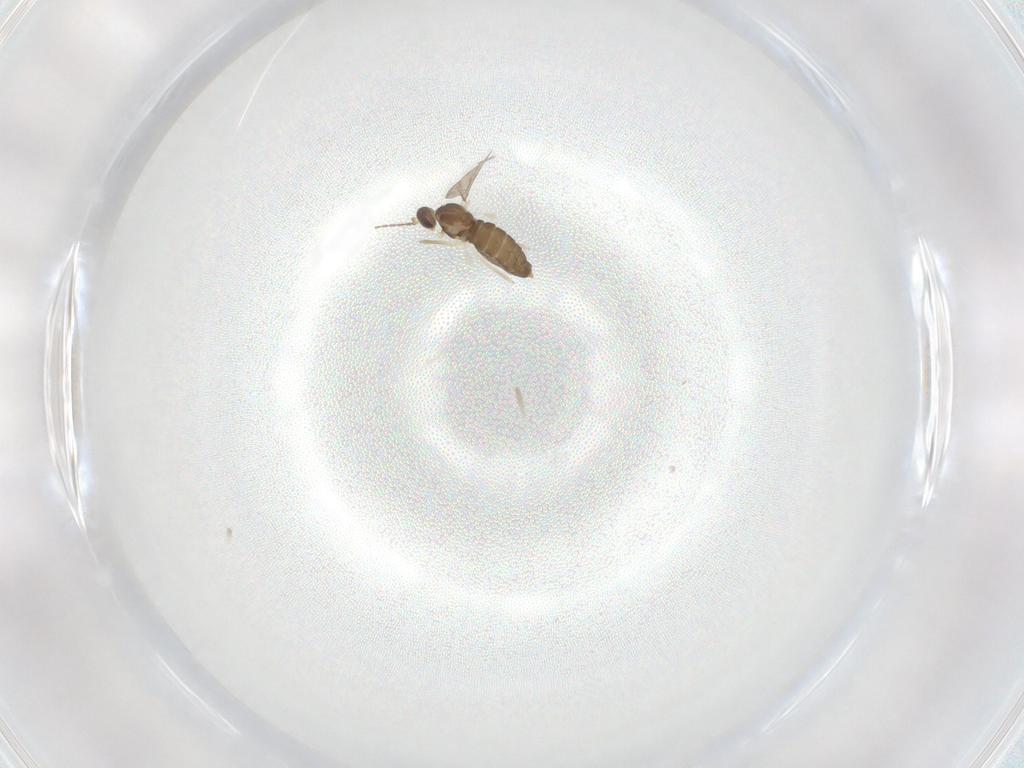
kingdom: Animalia
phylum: Arthropoda
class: Insecta
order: Diptera
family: Cecidomyiidae
